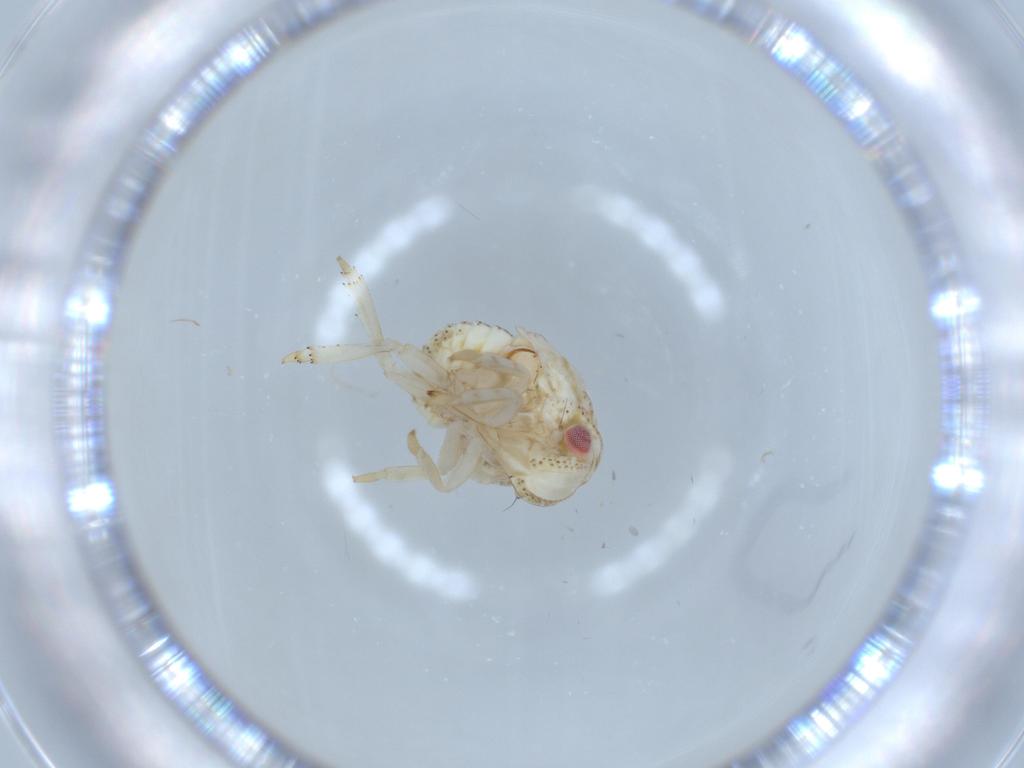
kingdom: Animalia
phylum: Arthropoda
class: Insecta
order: Hemiptera
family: Acanaloniidae
